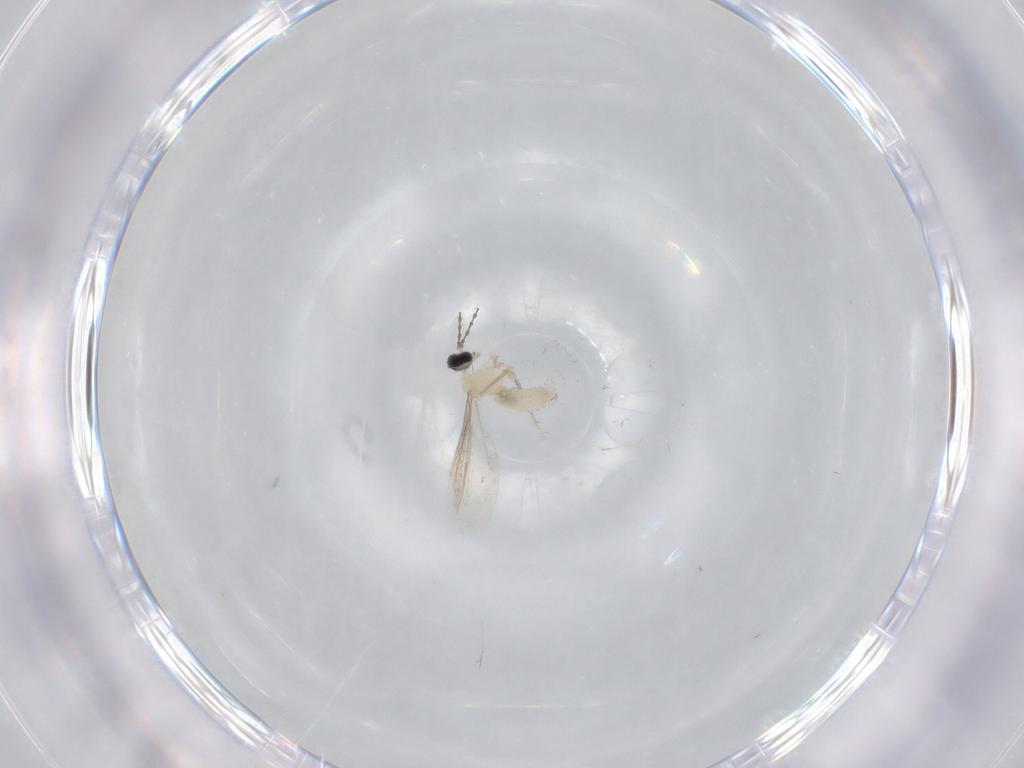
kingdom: Animalia
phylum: Arthropoda
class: Insecta
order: Diptera
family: Cecidomyiidae
